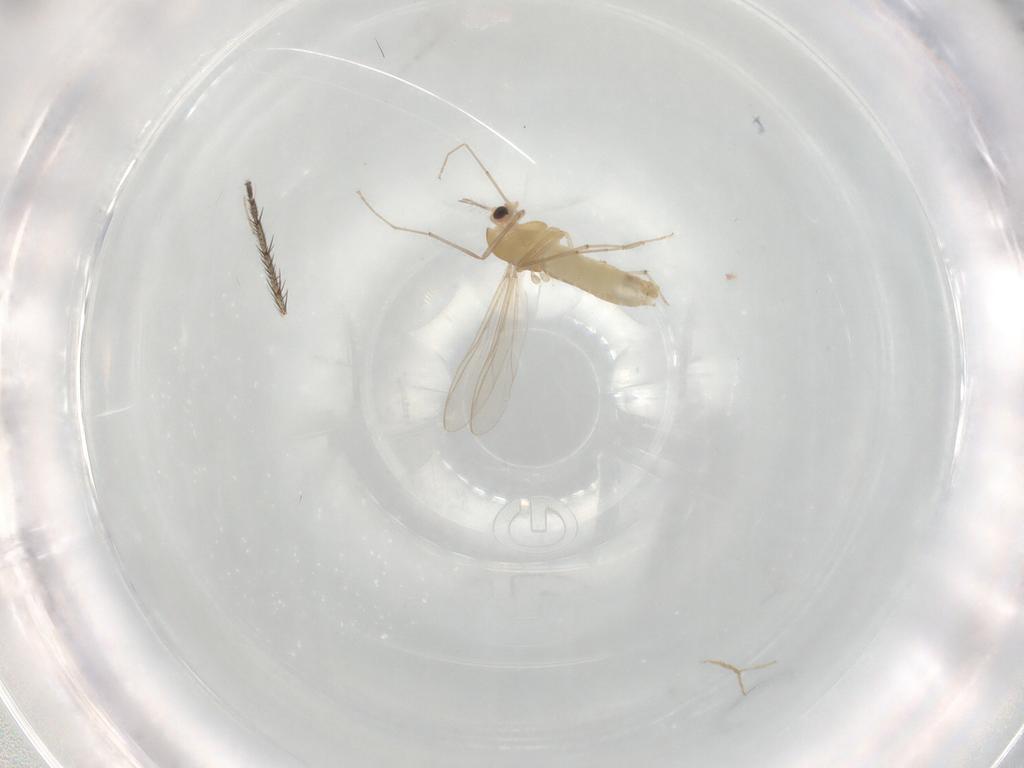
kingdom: Animalia
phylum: Arthropoda
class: Insecta
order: Diptera
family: Mycetophilidae
